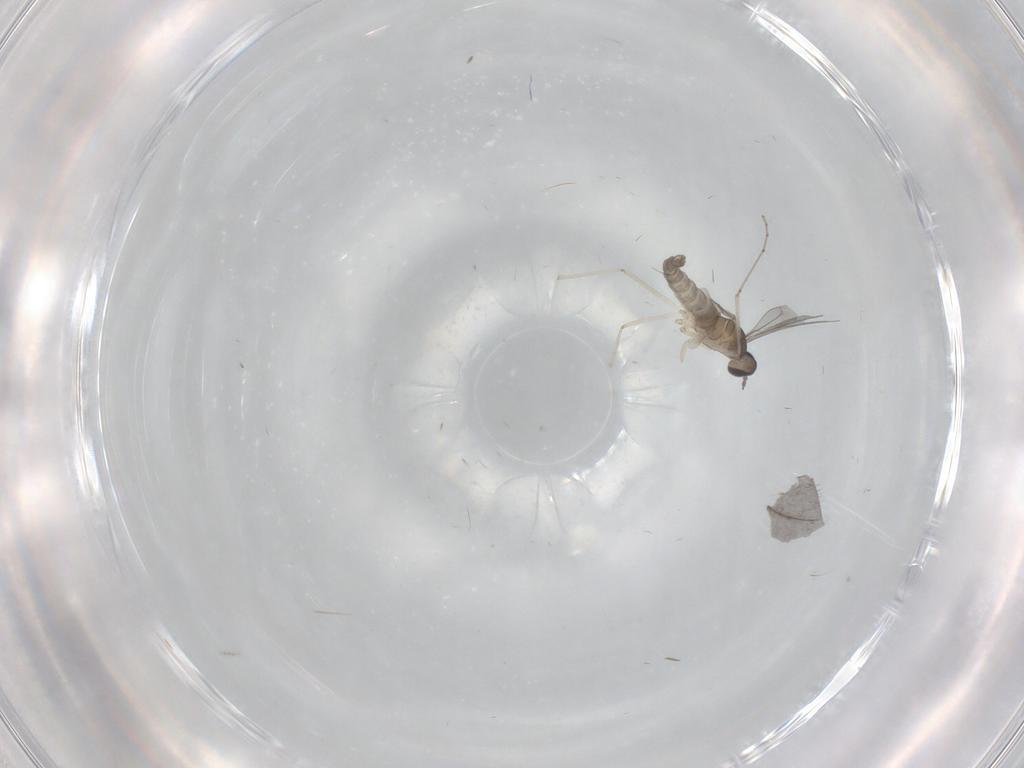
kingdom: Animalia
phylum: Arthropoda
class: Insecta
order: Diptera
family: Cecidomyiidae
